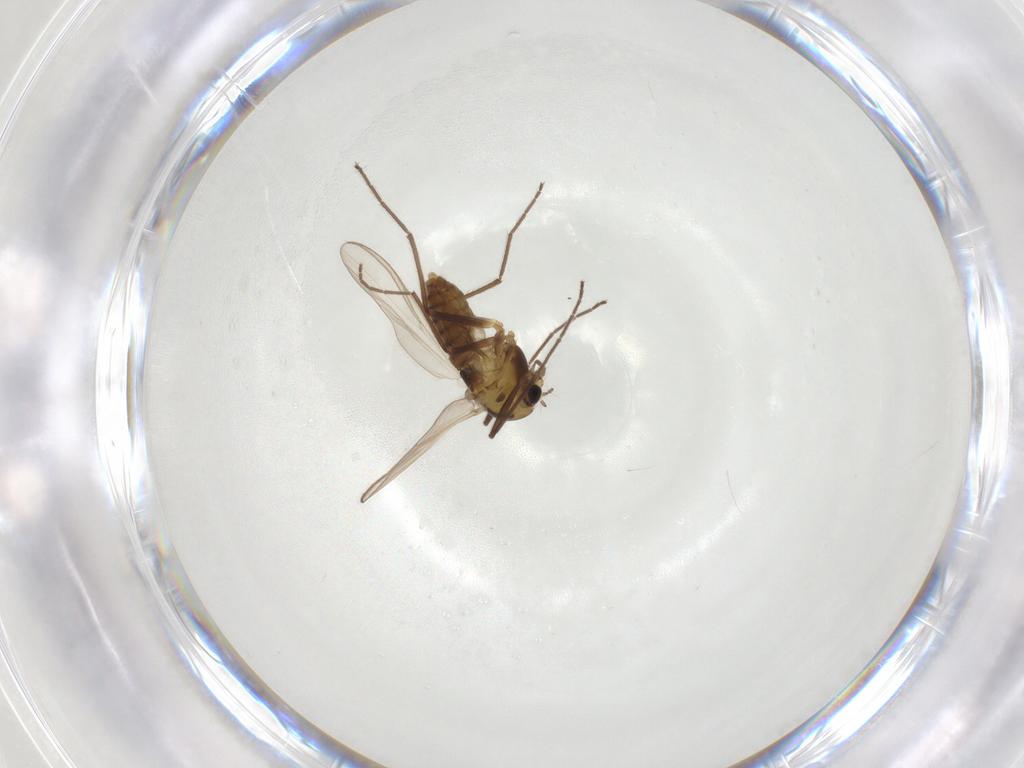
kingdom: Animalia
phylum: Arthropoda
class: Insecta
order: Diptera
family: Chironomidae
